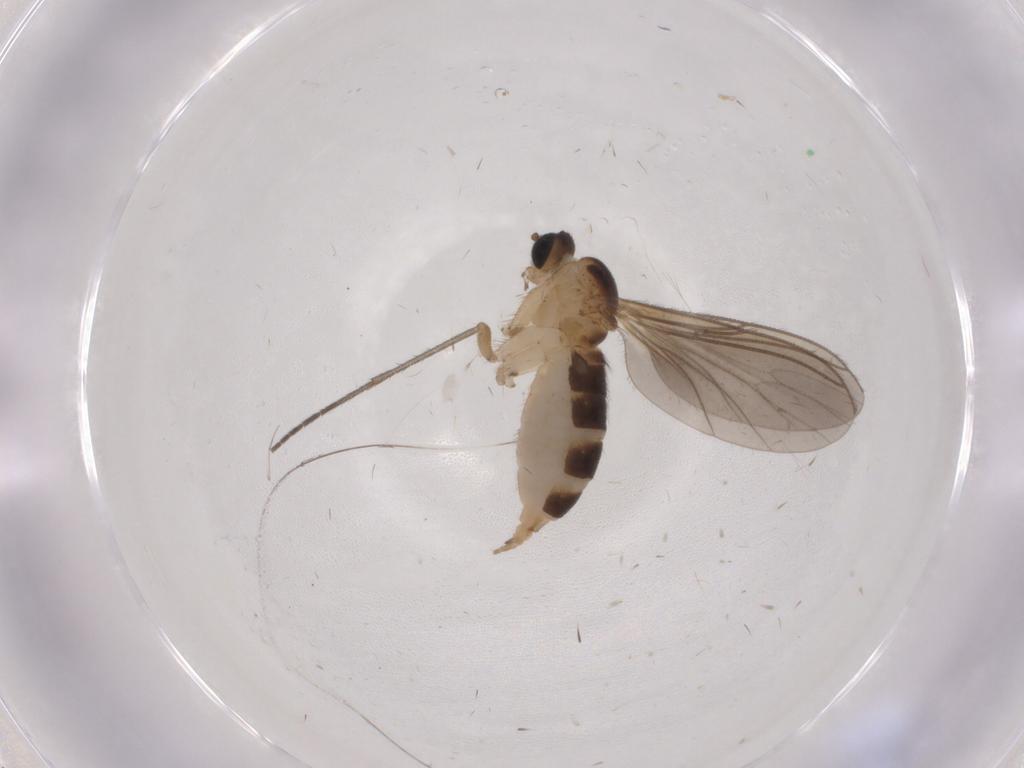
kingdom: Animalia
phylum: Arthropoda
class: Insecta
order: Diptera
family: Sciaridae
